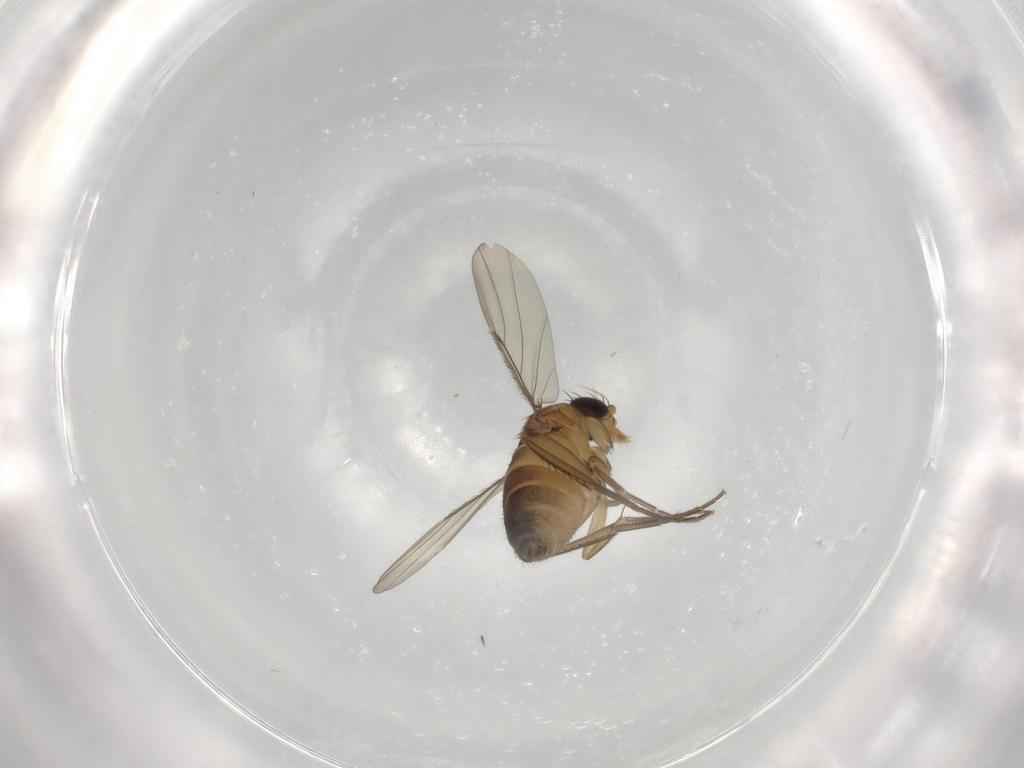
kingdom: Animalia
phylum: Arthropoda
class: Insecta
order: Diptera
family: Phoridae
